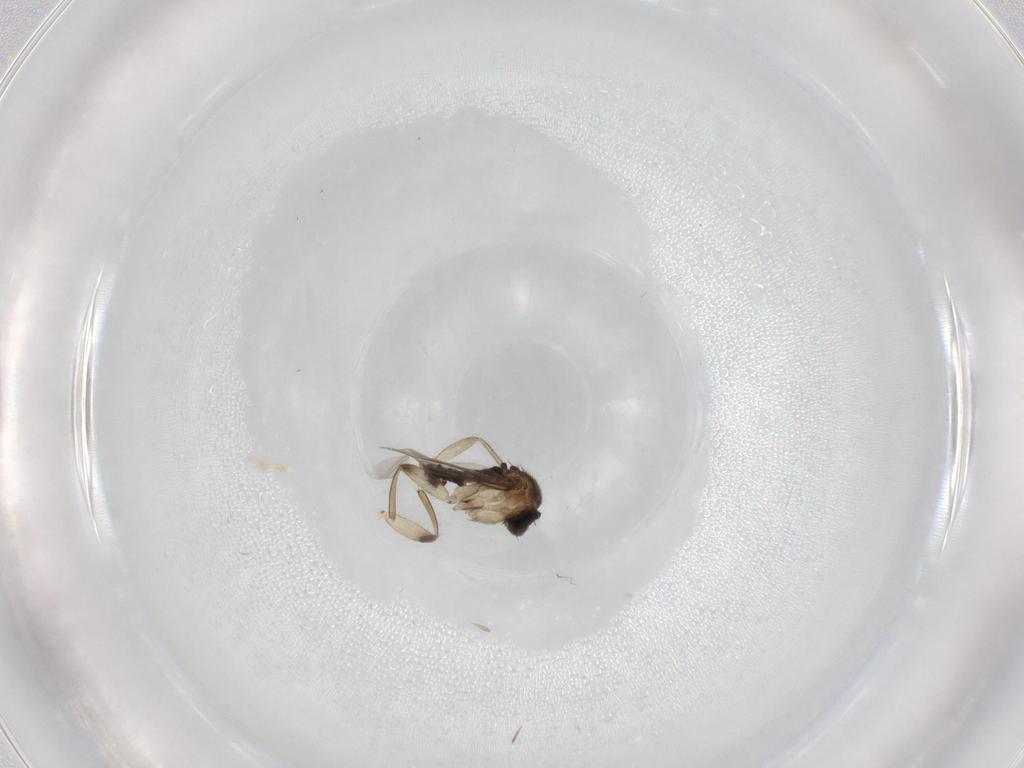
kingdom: Animalia
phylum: Arthropoda
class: Insecta
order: Diptera
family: Phoridae
